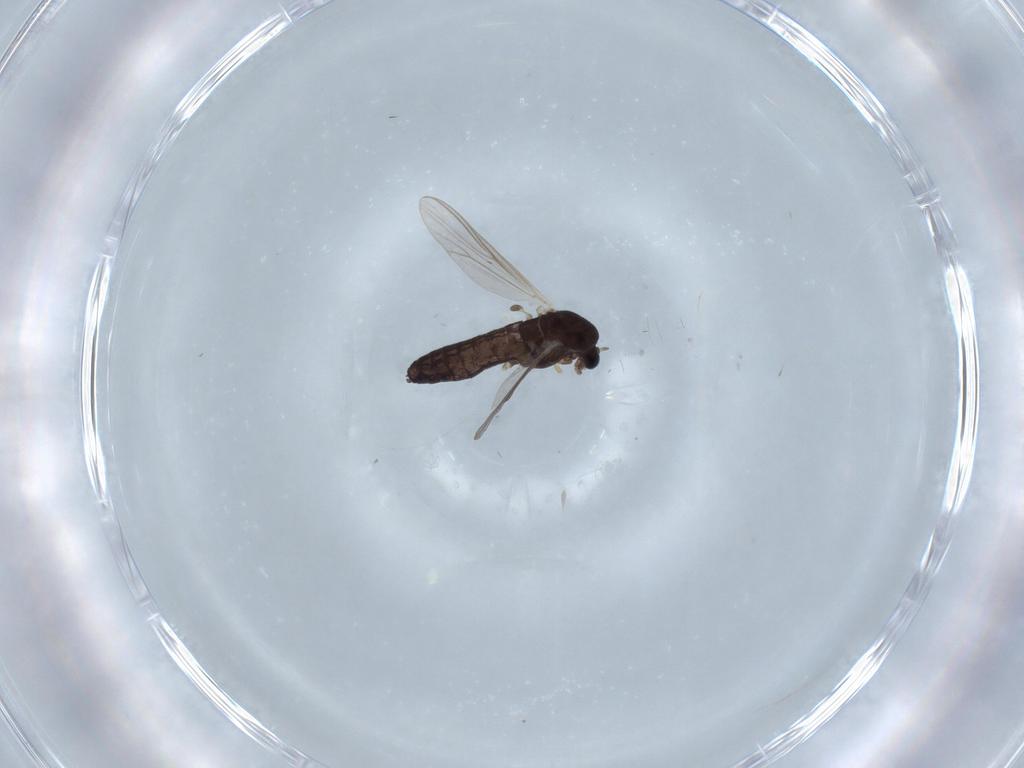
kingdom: Animalia
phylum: Arthropoda
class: Insecta
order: Diptera
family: Chironomidae
